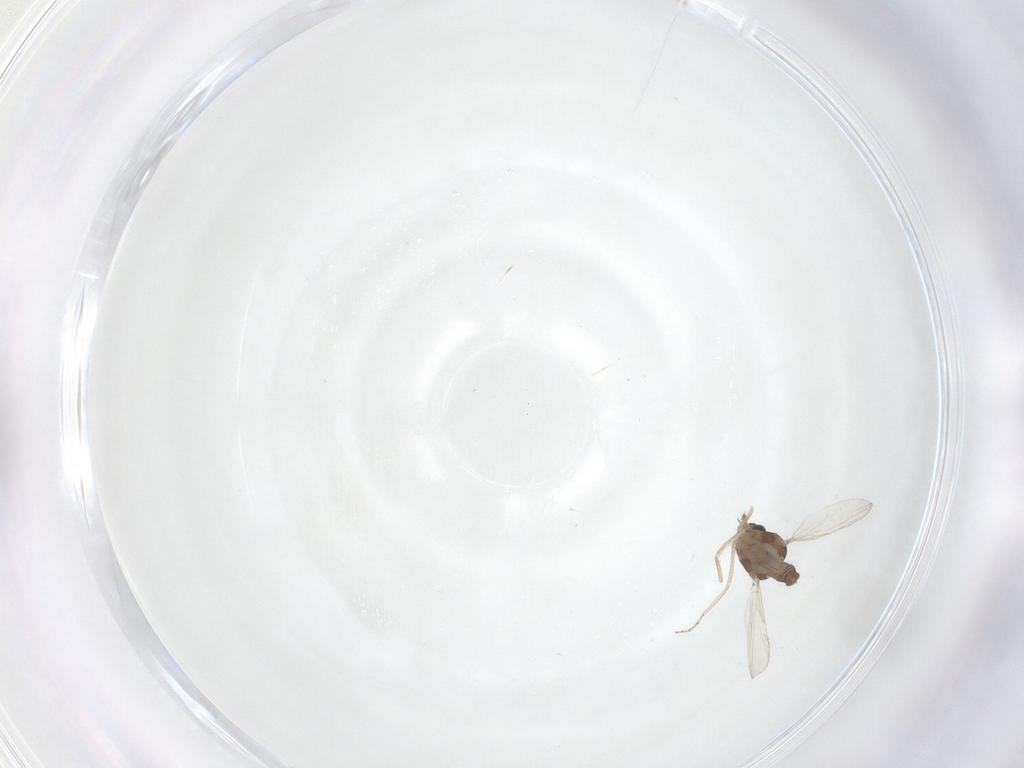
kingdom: Animalia
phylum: Arthropoda
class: Insecta
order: Diptera
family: Ceratopogonidae
